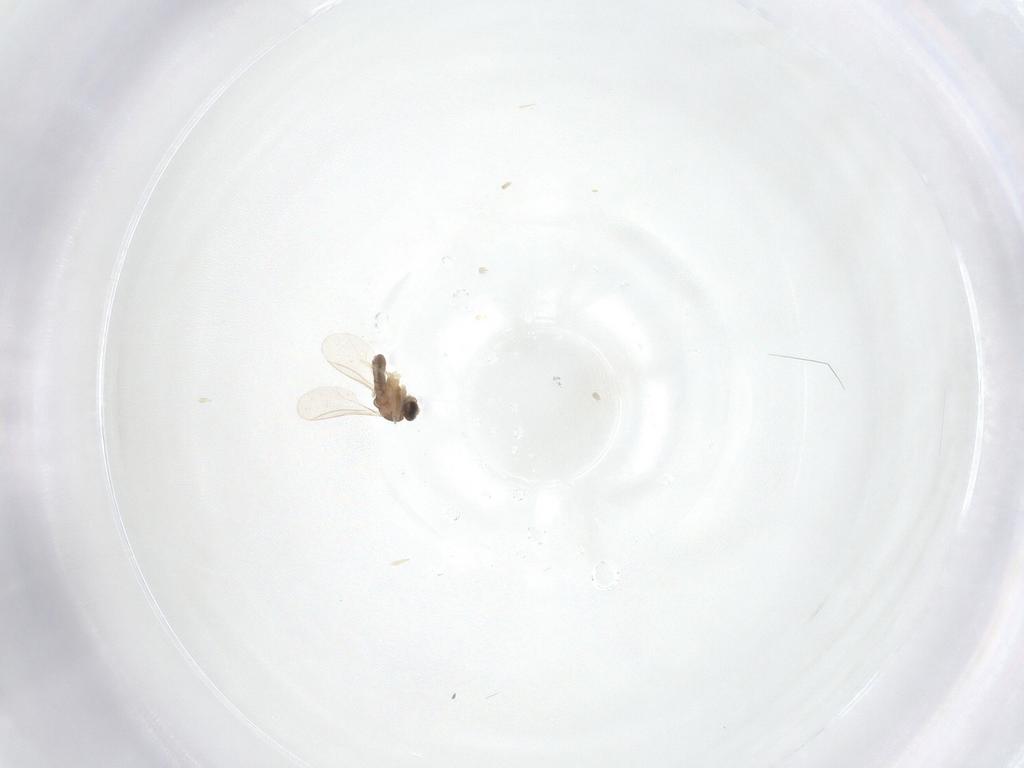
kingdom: Animalia
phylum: Arthropoda
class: Insecta
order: Diptera
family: Cecidomyiidae
